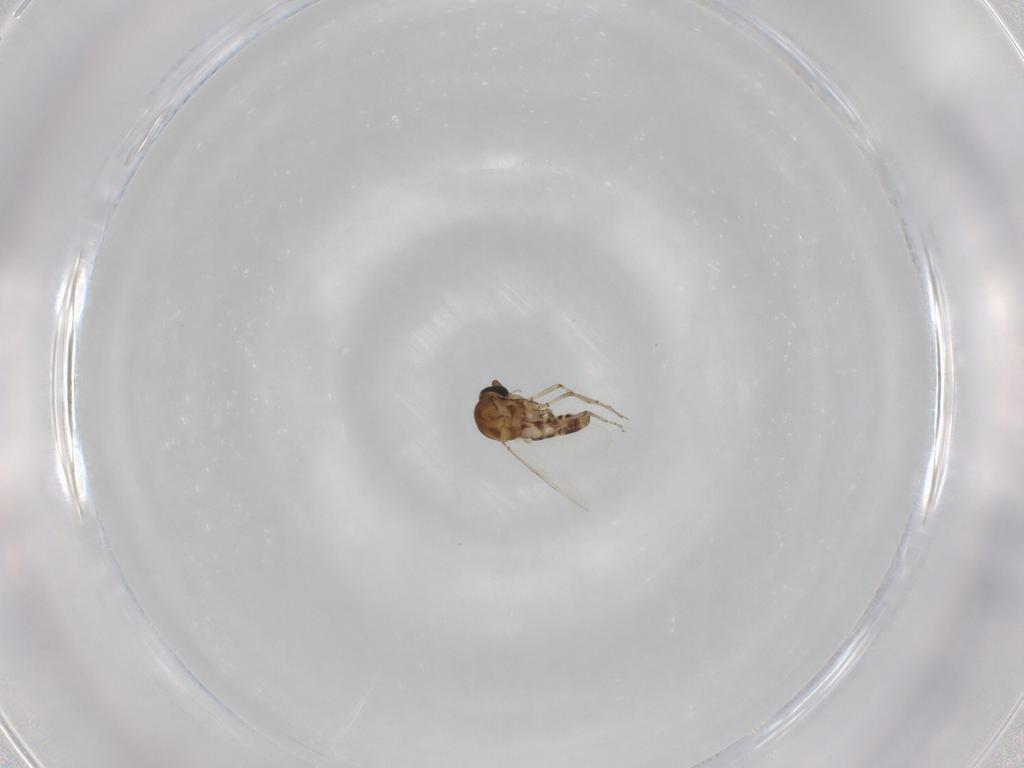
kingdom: Animalia
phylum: Arthropoda
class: Insecta
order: Diptera
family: Ceratopogonidae
